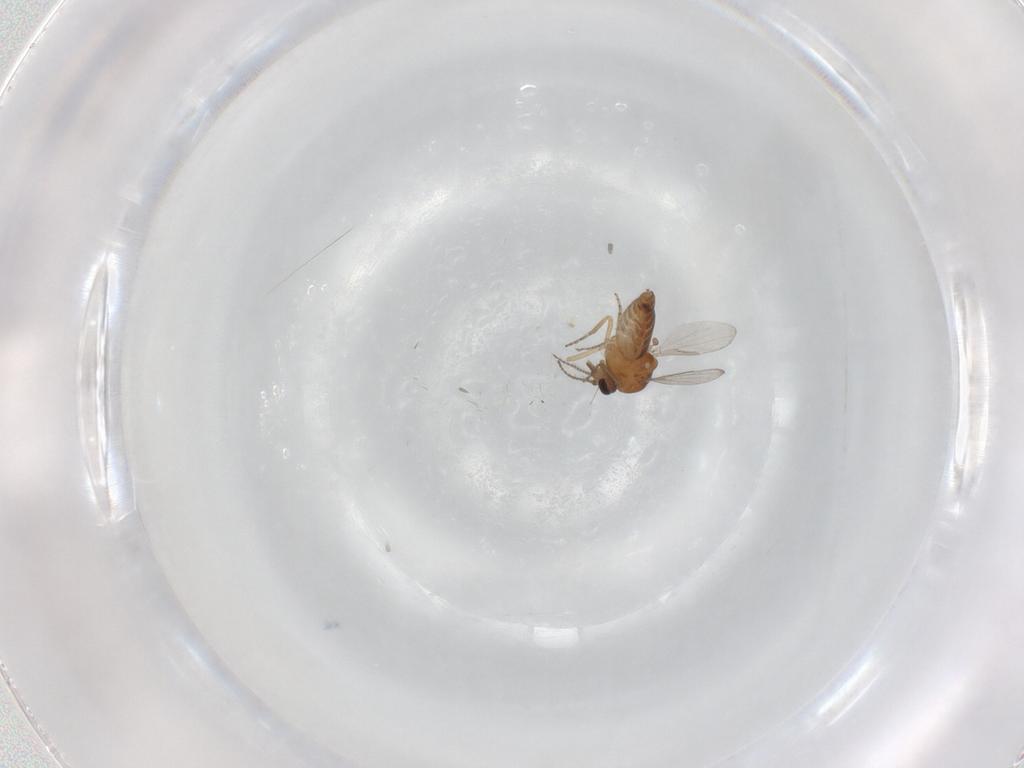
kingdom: Animalia
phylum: Arthropoda
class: Insecta
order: Diptera
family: Ceratopogonidae
